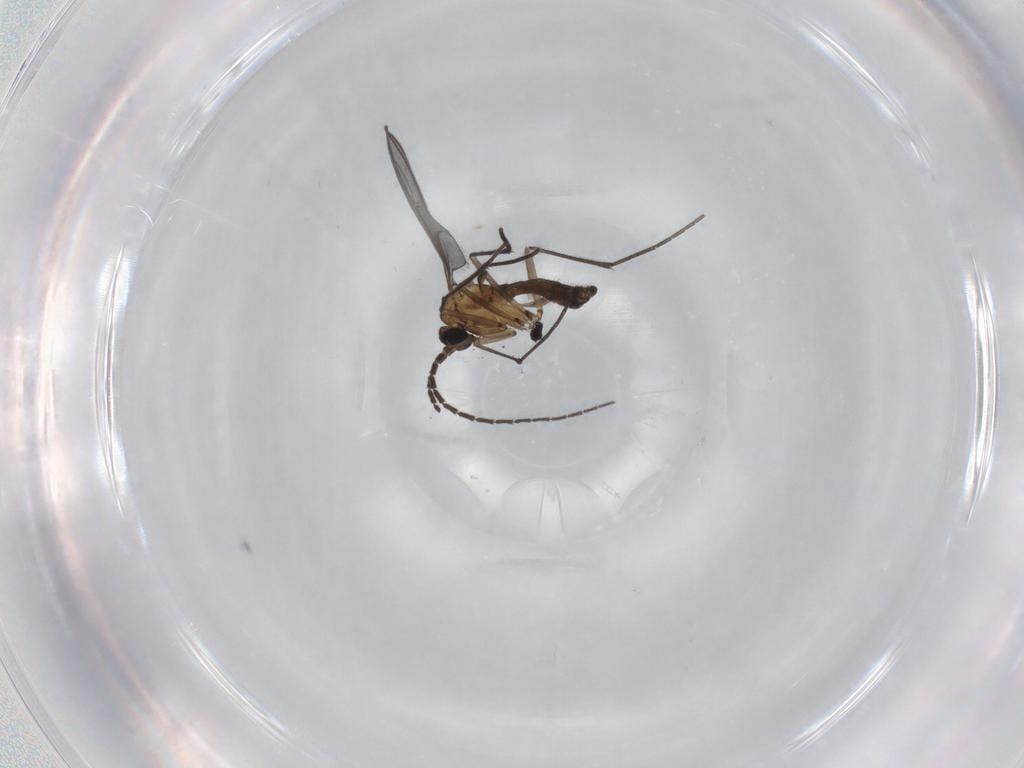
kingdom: Animalia
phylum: Arthropoda
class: Insecta
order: Diptera
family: Sciaridae
